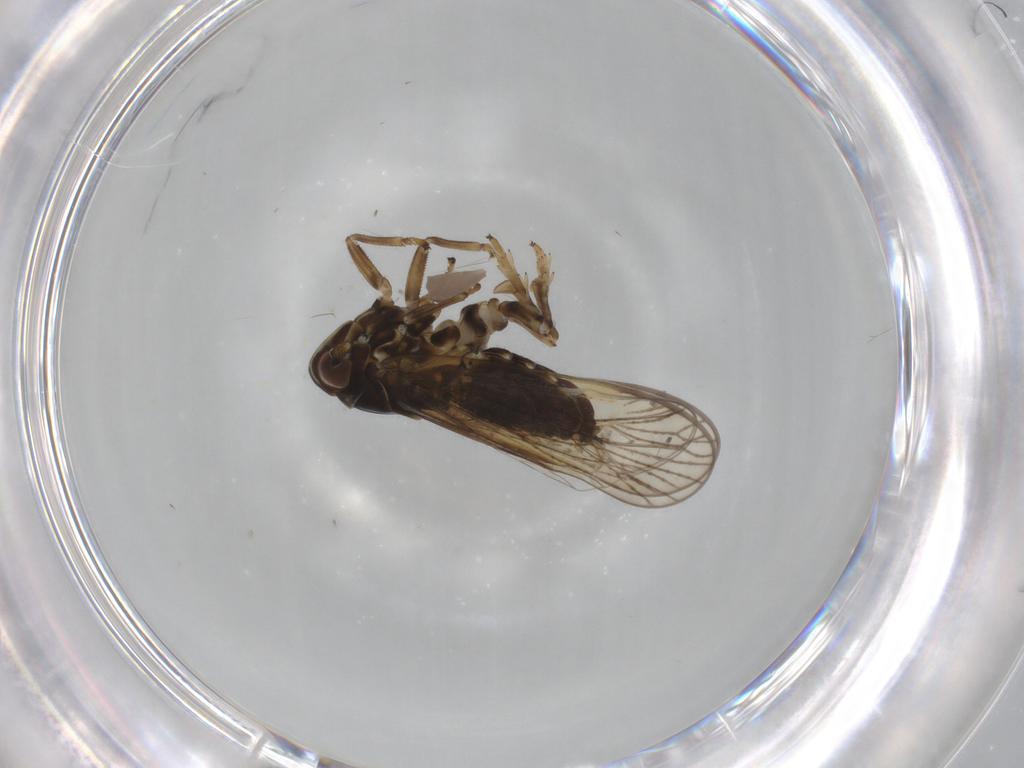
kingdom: Animalia
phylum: Arthropoda
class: Insecta
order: Hemiptera
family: Delphacidae
